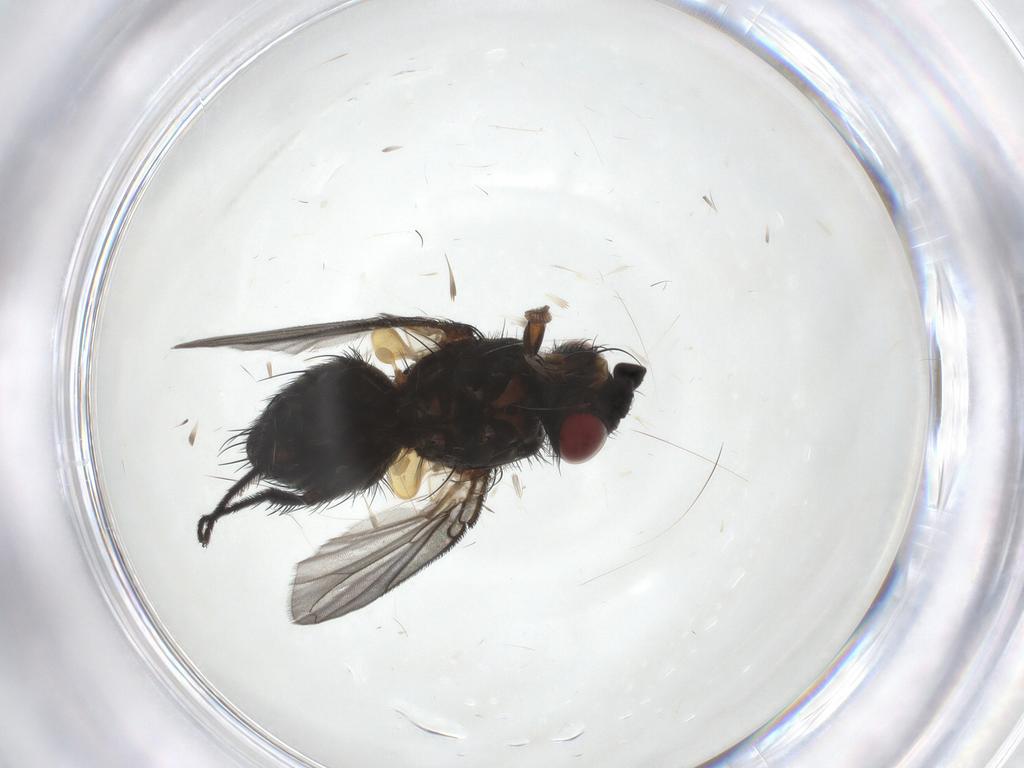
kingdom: Animalia
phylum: Arthropoda
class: Insecta
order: Diptera
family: Tachinidae
